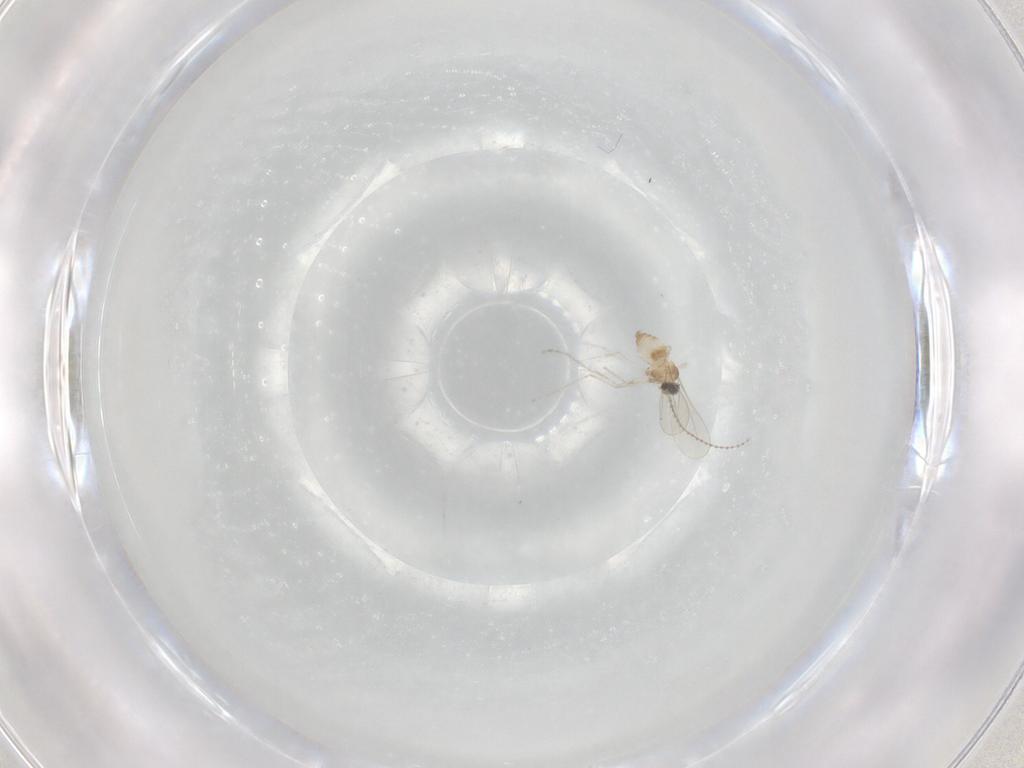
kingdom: Animalia
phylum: Arthropoda
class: Insecta
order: Diptera
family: Cecidomyiidae
